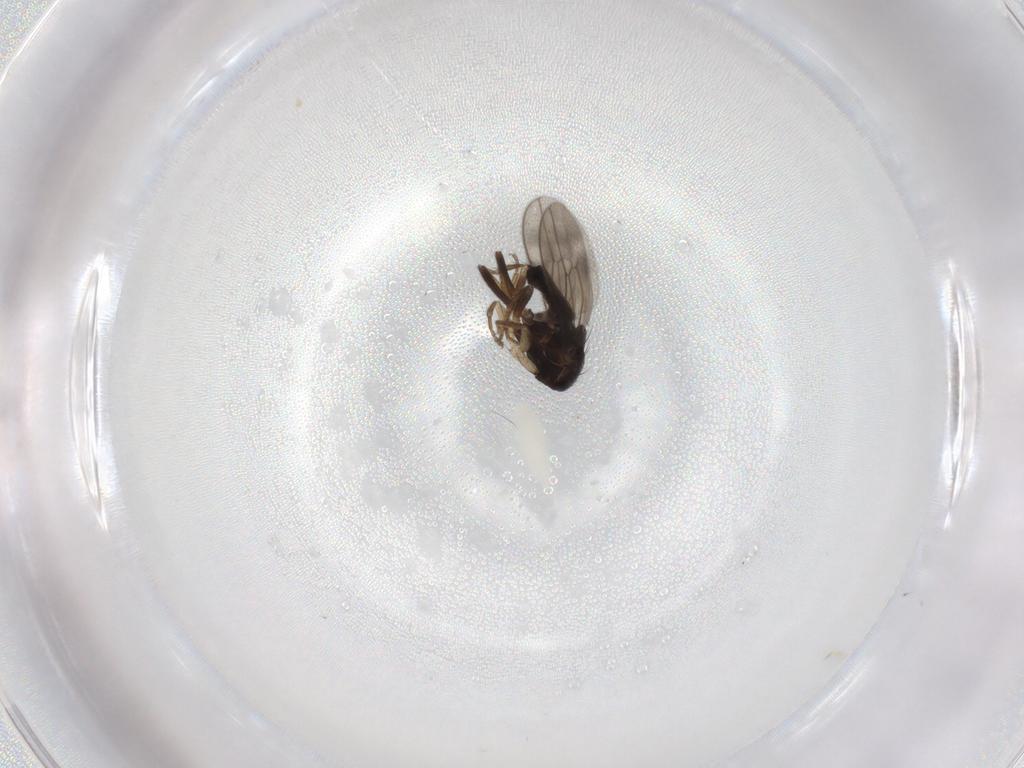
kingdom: Animalia
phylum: Arthropoda
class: Insecta
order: Diptera
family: Sphaeroceridae
